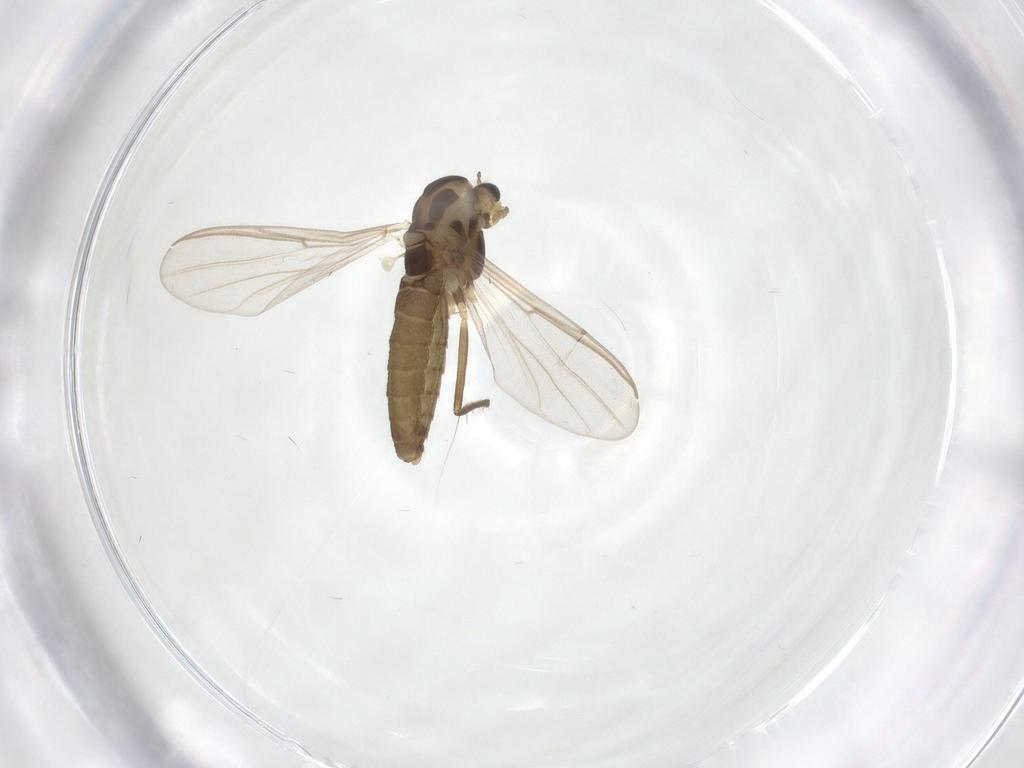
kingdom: Animalia
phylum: Arthropoda
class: Insecta
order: Diptera
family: Chironomidae
